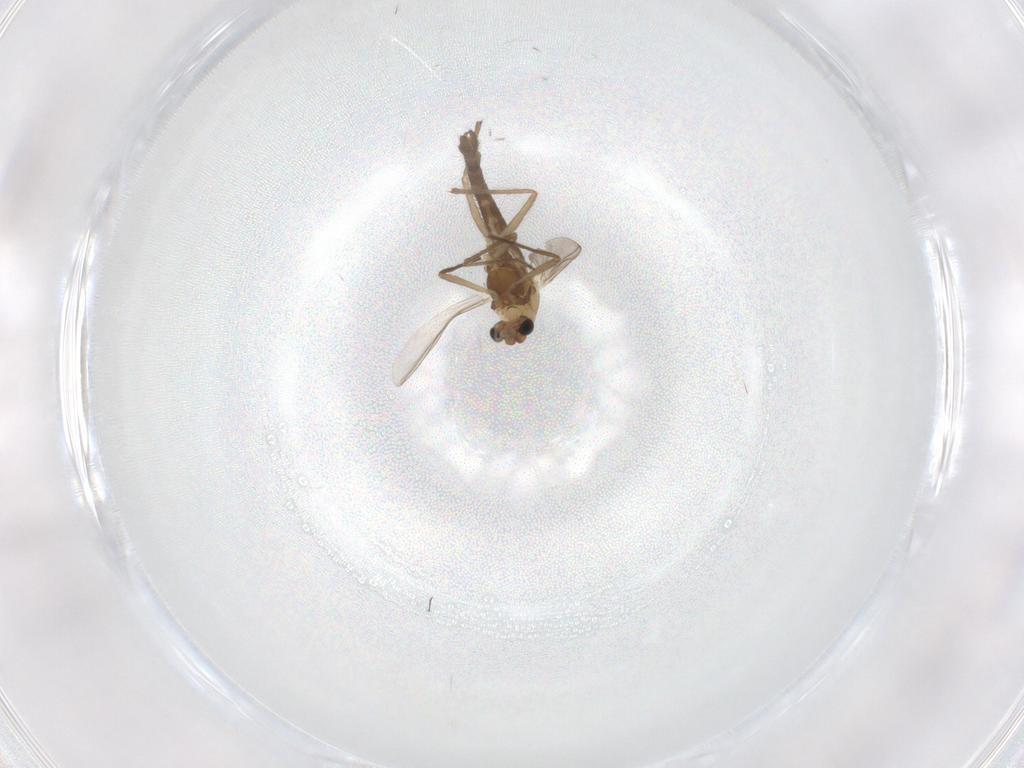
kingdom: Animalia
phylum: Arthropoda
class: Insecta
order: Diptera
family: Chironomidae
